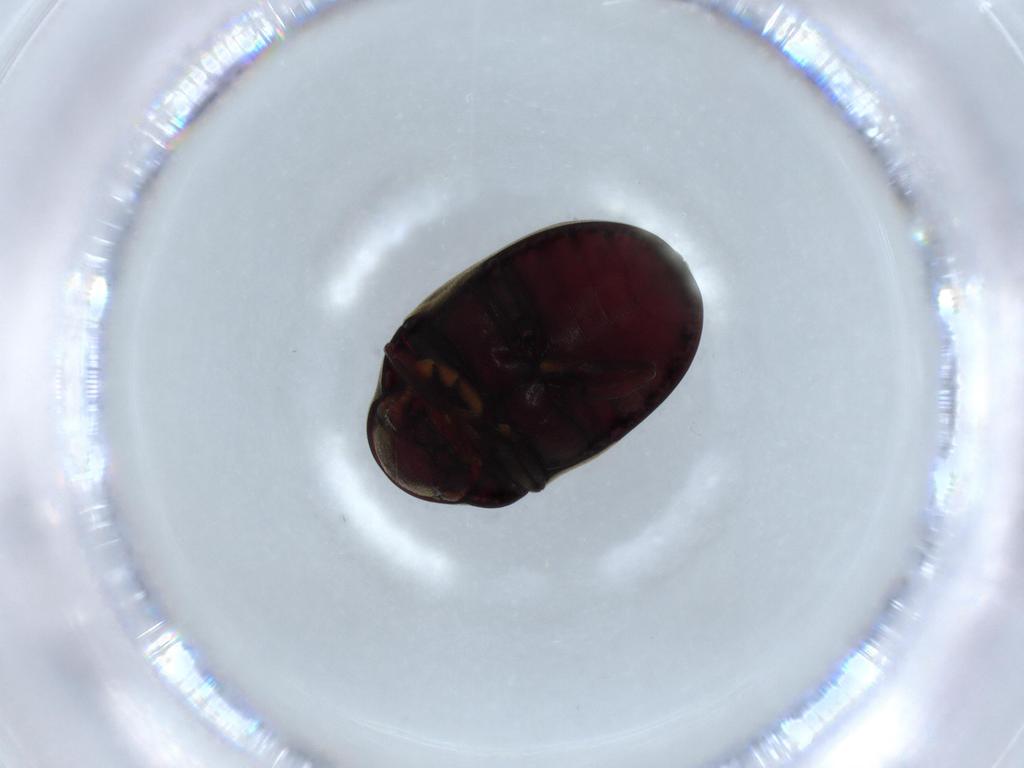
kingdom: Animalia
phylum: Arthropoda
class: Insecta
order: Coleoptera
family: Ptinidae
